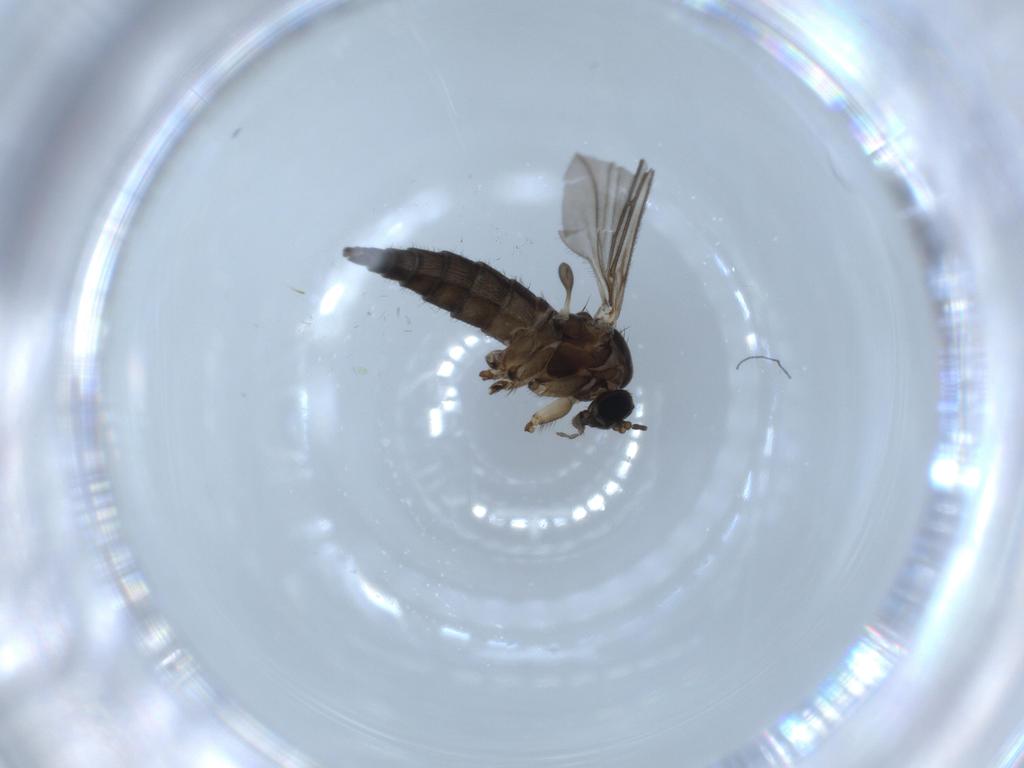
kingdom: Animalia
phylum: Arthropoda
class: Insecta
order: Diptera
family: Sciaridae
